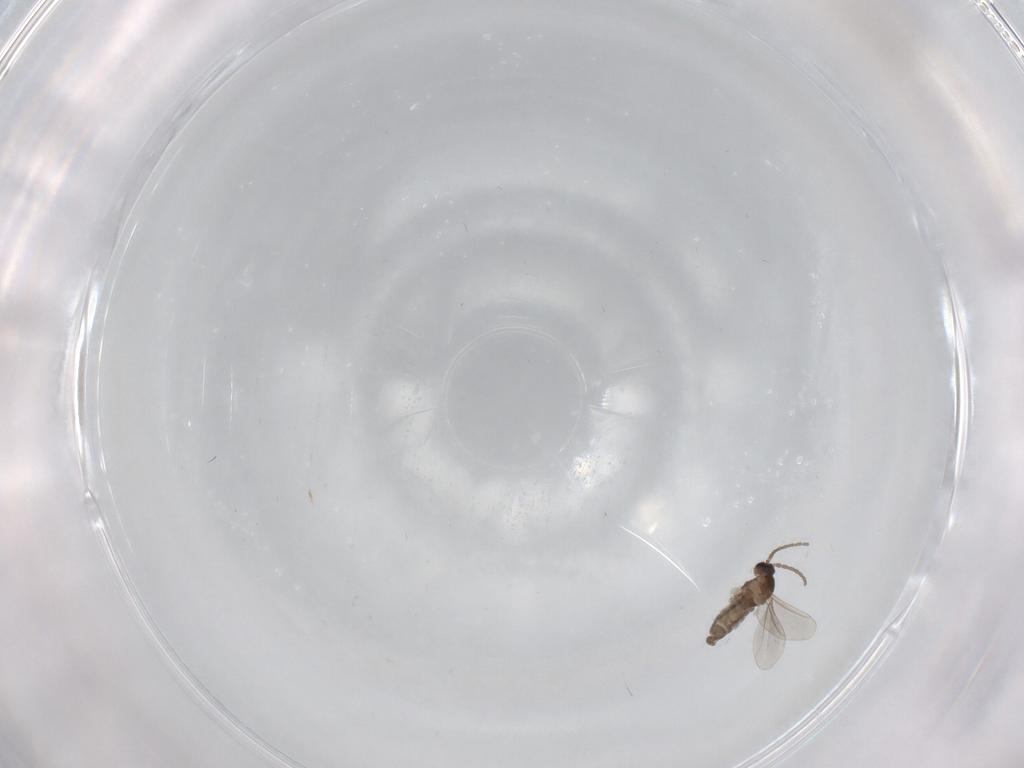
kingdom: Animalia
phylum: Arthropoda
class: Insecta
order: Diptera
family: Cecidomyiidae
